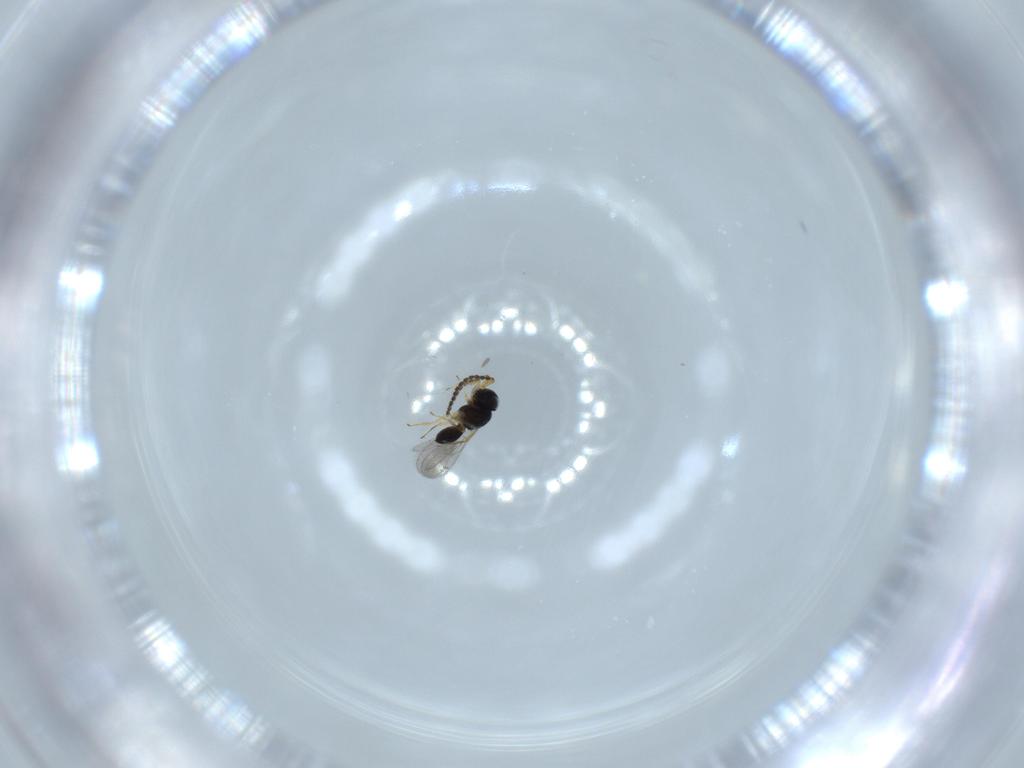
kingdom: Animalia
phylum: Arthropoda
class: Insecta
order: Hymenoptera
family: Scelionidae
